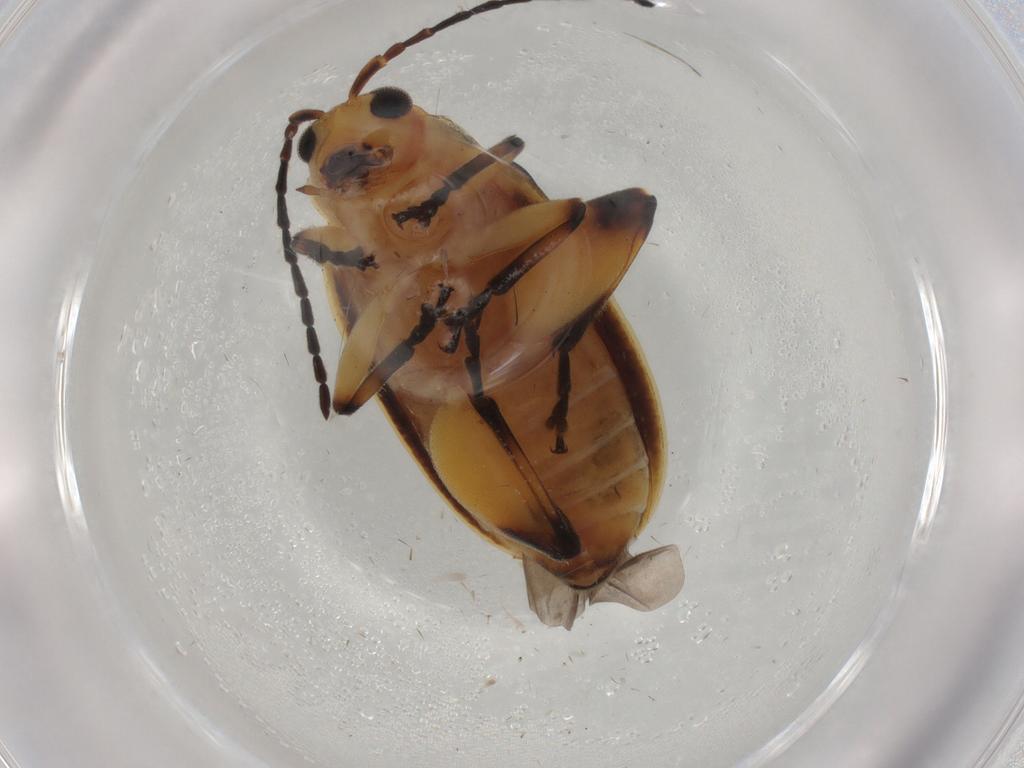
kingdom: Animalia
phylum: Arthropoda
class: Insecta
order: Coleoptera
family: Chrysomelidae
